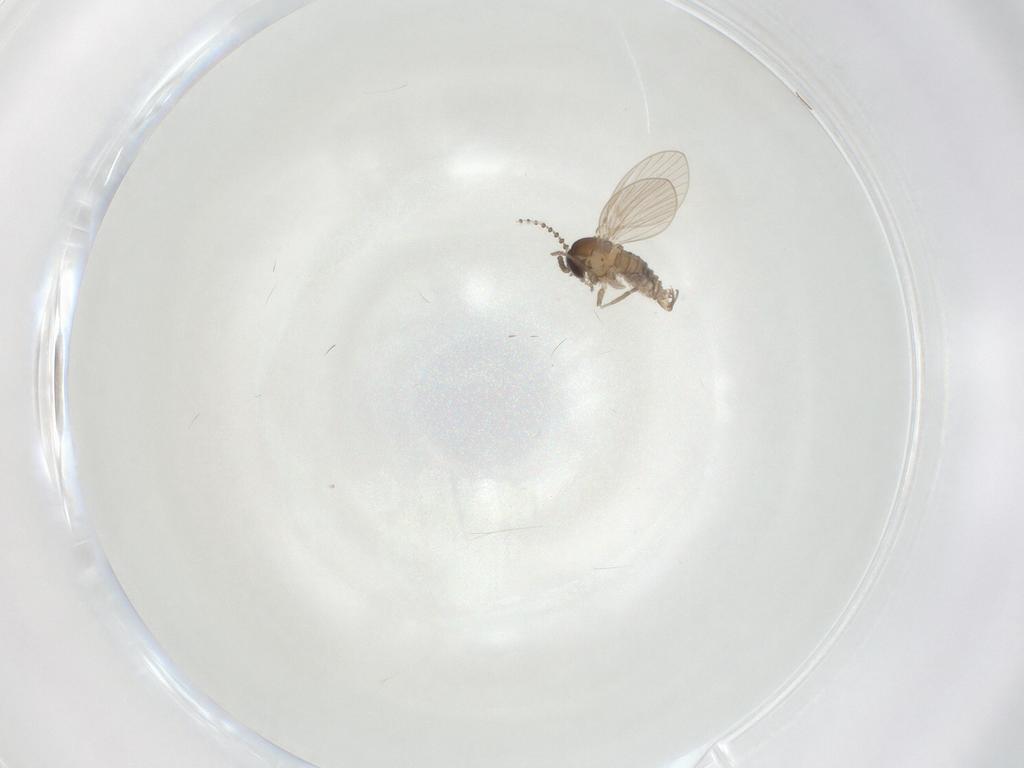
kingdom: Animalia
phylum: Arthropoda
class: Insecta
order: Diptera
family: Psychodidae
